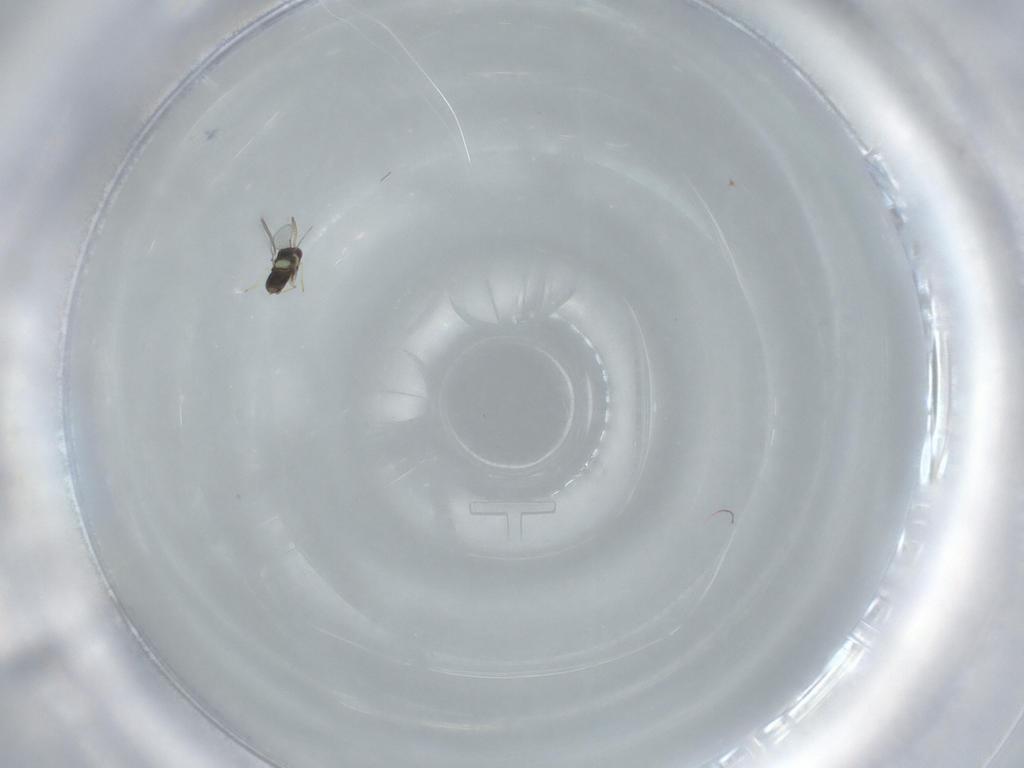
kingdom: Animalia
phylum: Arthropoda
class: Insecta
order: Hymenoptera
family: Aphelinidae
